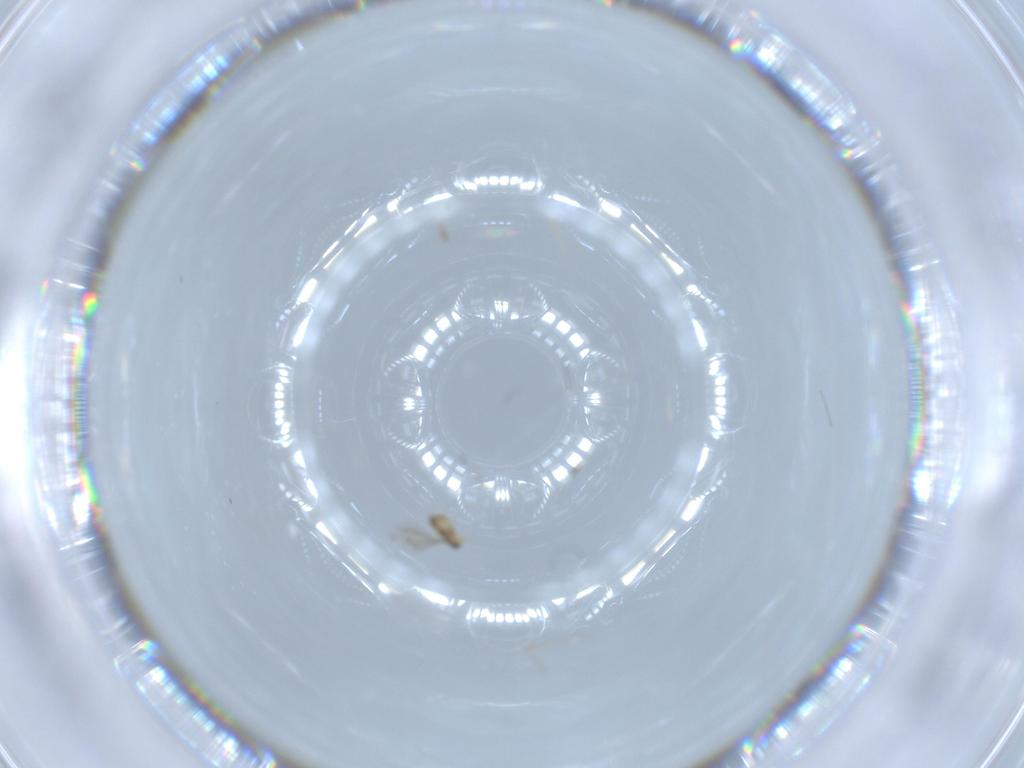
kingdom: Animalia
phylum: Arthropoda
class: Insecta
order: Hymenoptera
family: Mymaridae
